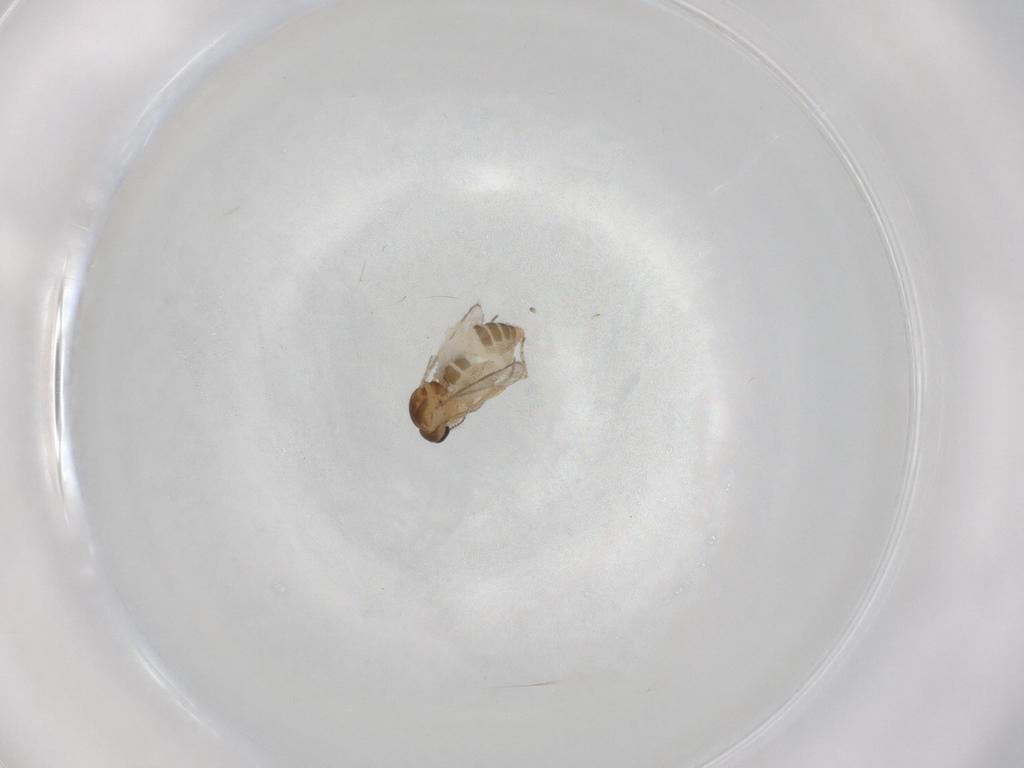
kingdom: Animalia
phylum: Arthropoda
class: Insecta
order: Diptera
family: Ceratopogonidae
